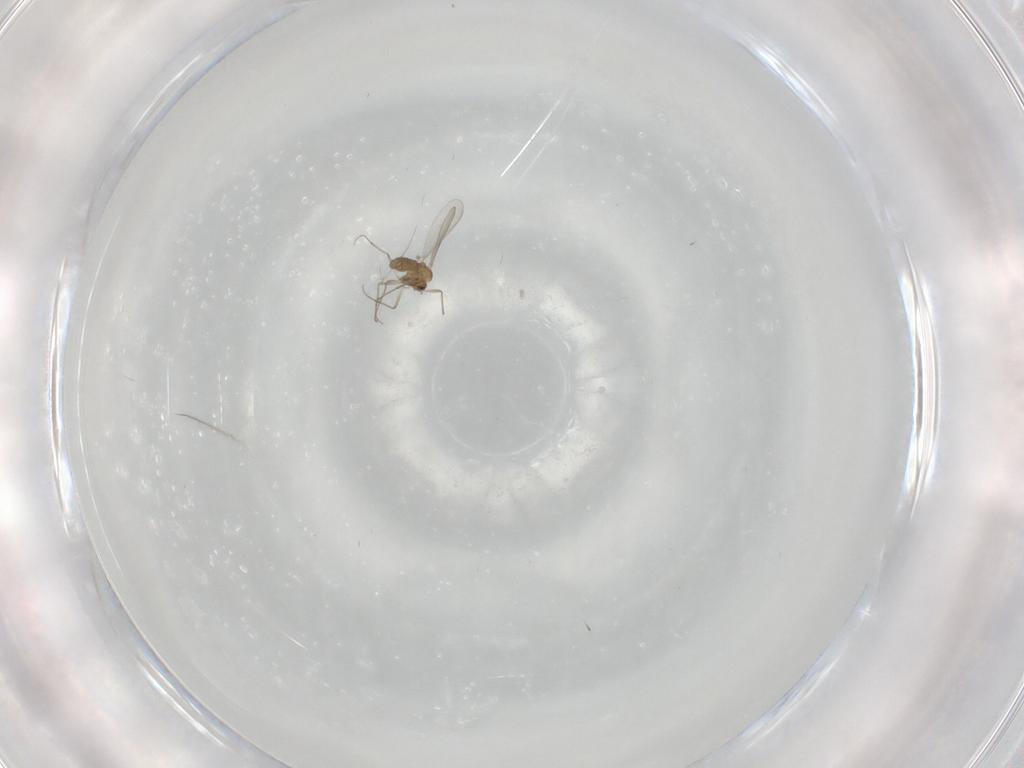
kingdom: Animalia
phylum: Arthropoda
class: Insecta
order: Diptera
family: Chironomidae
